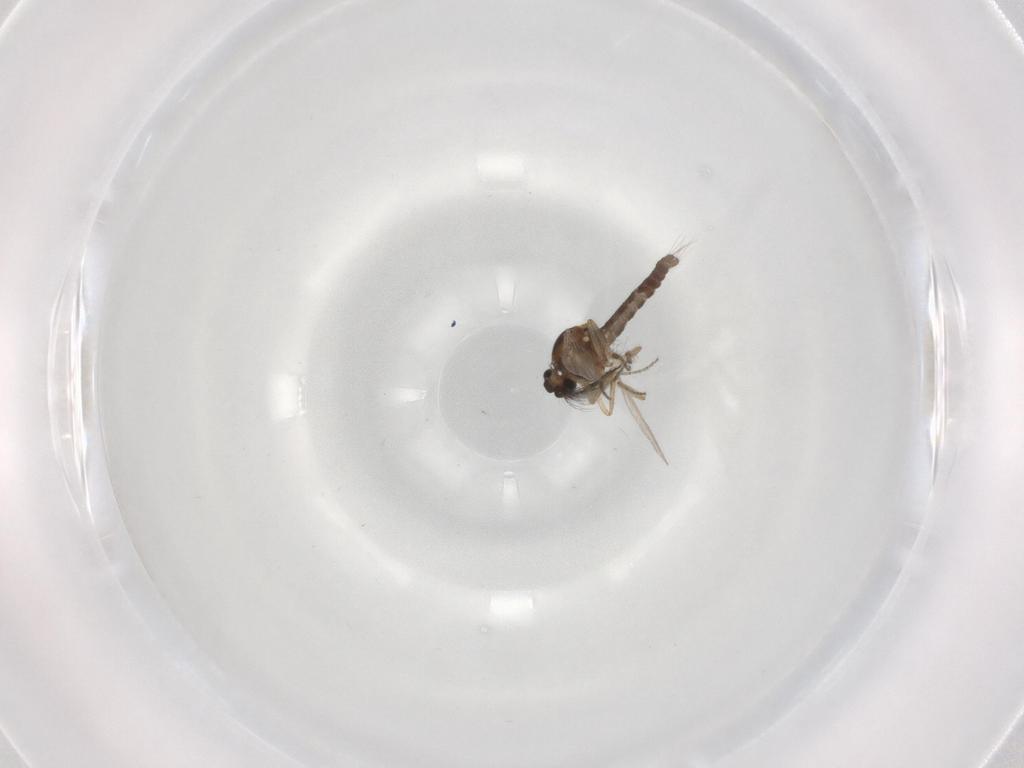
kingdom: Animalia
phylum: Arthropoda
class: Insecta
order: Diptera
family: Ceratopogonidae
